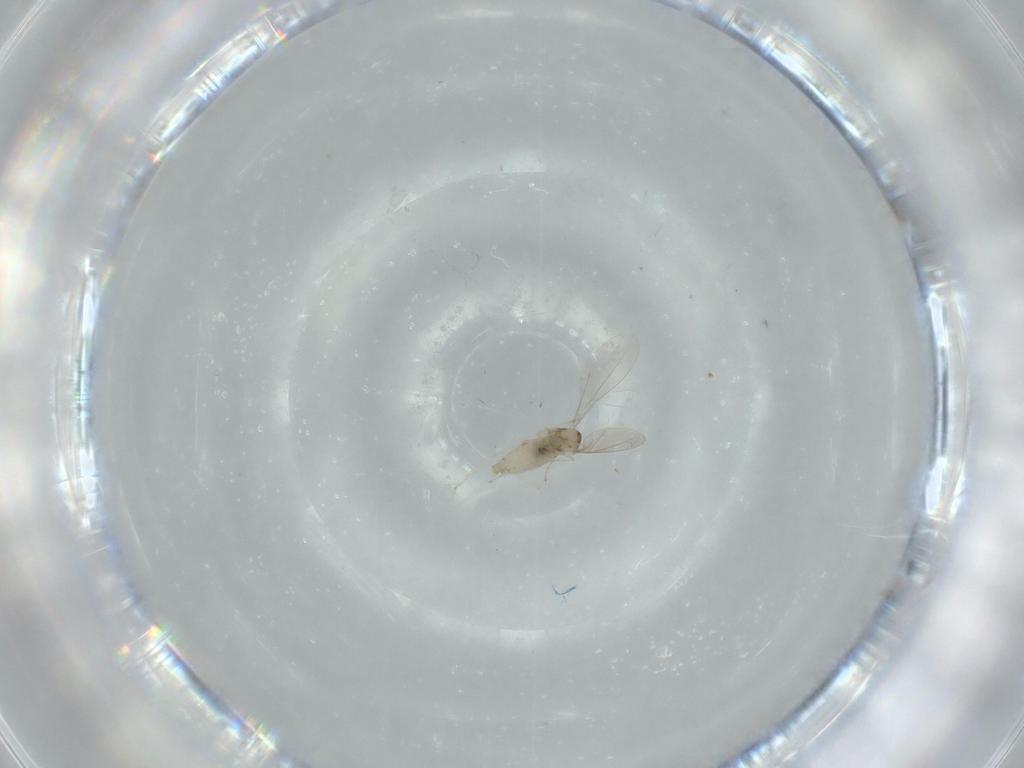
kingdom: Animalia
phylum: Arthropoda
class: Insecta
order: Diptera
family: Cecidomyiidae
